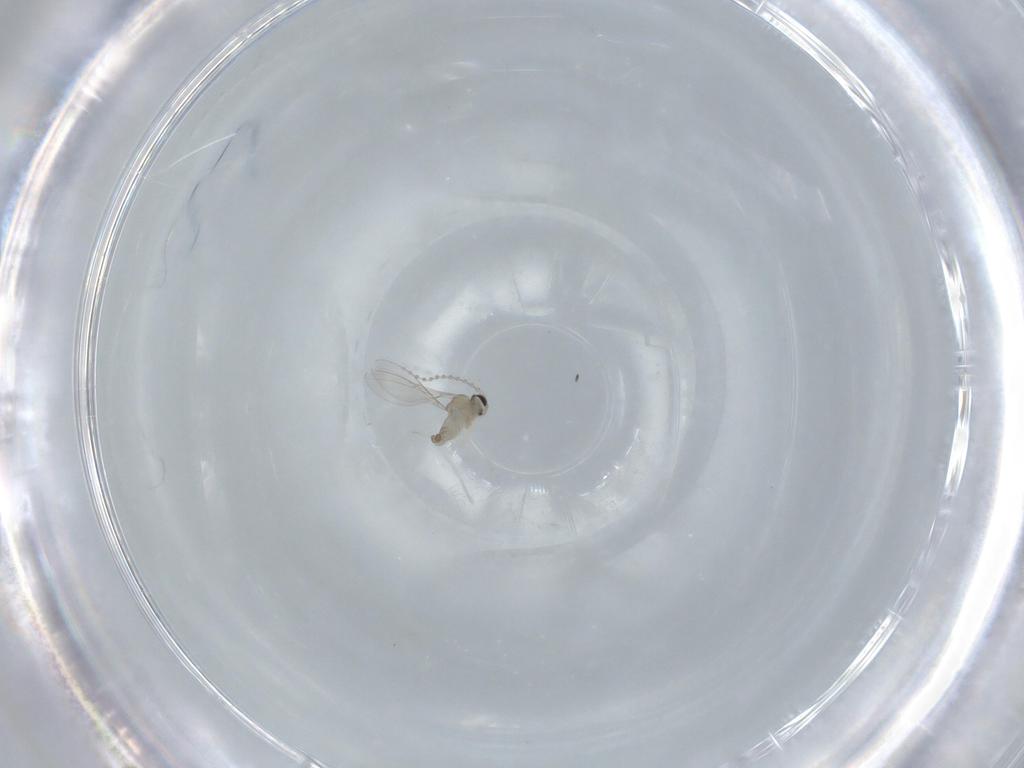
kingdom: Animalia
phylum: Arthropoda
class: Insecta
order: Diptera
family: Cecidomyiidae
